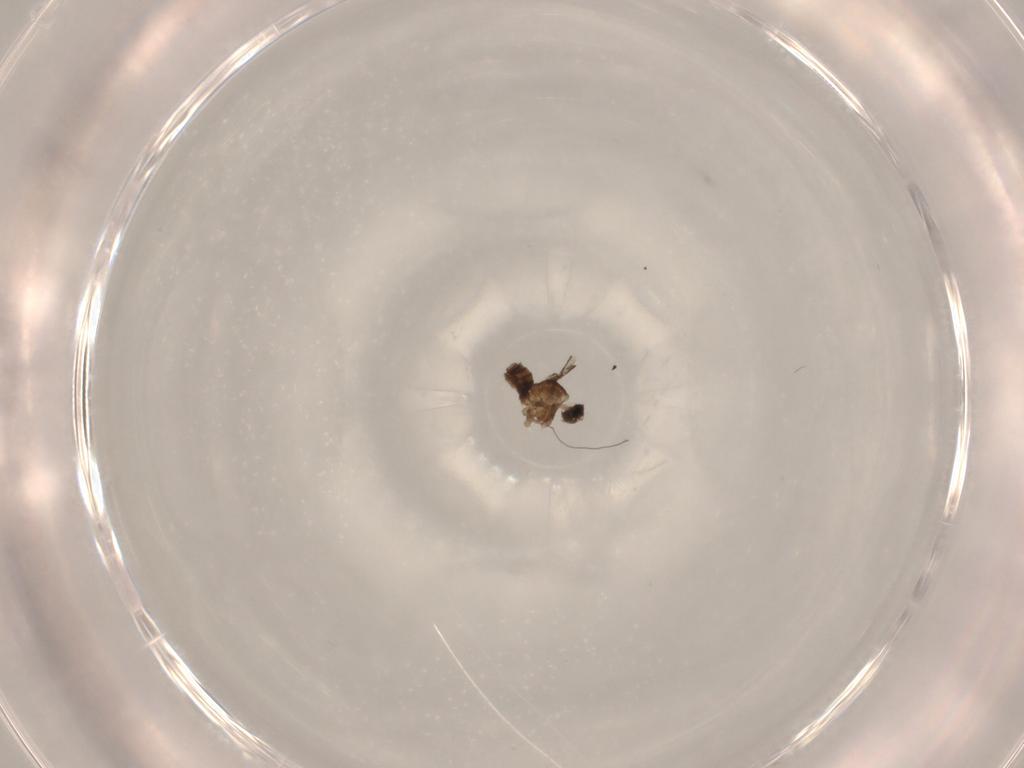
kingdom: Animalia
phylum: Arthropoda
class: Insecta
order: Diptera
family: Cecidomyiidae
